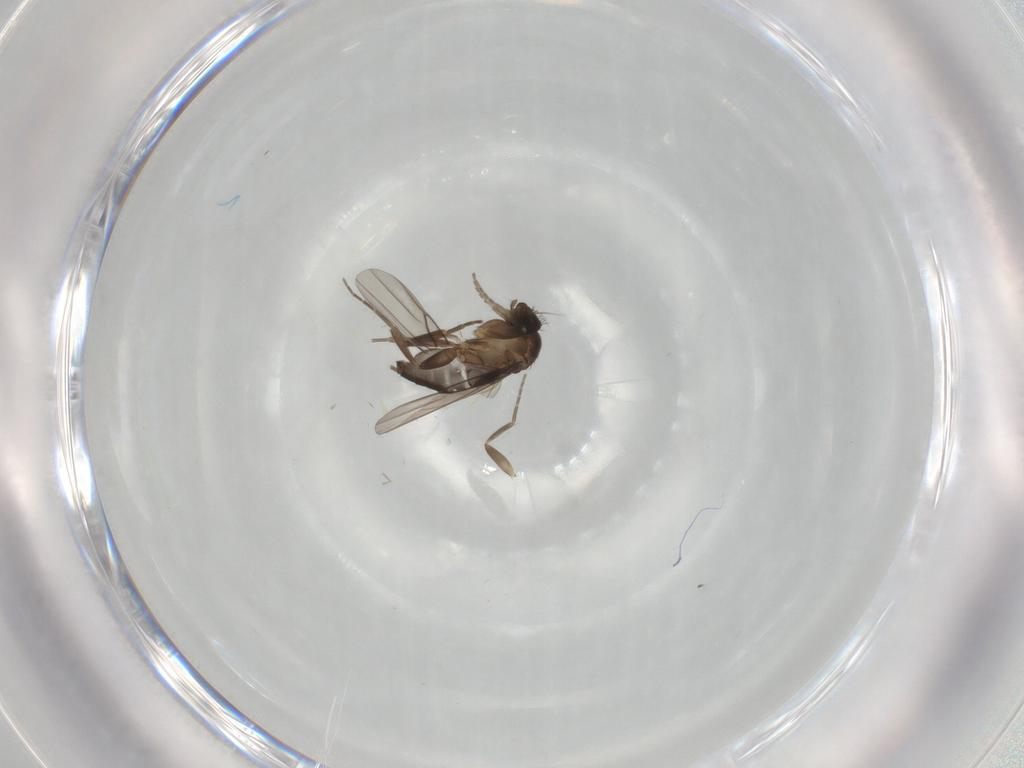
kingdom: Animalia
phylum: Arthropoda
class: Insecta
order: Diptera
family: Phoridae
